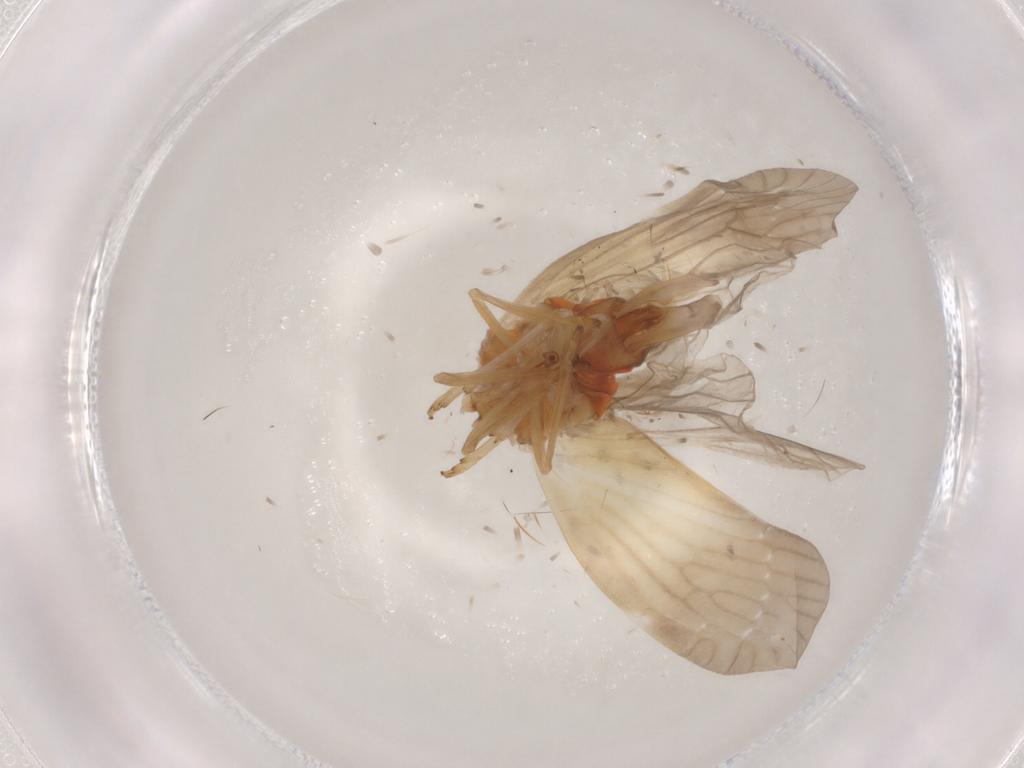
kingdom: Animalia
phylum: Arthropoda
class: Insecta
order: Hemiptera
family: Derbidae
